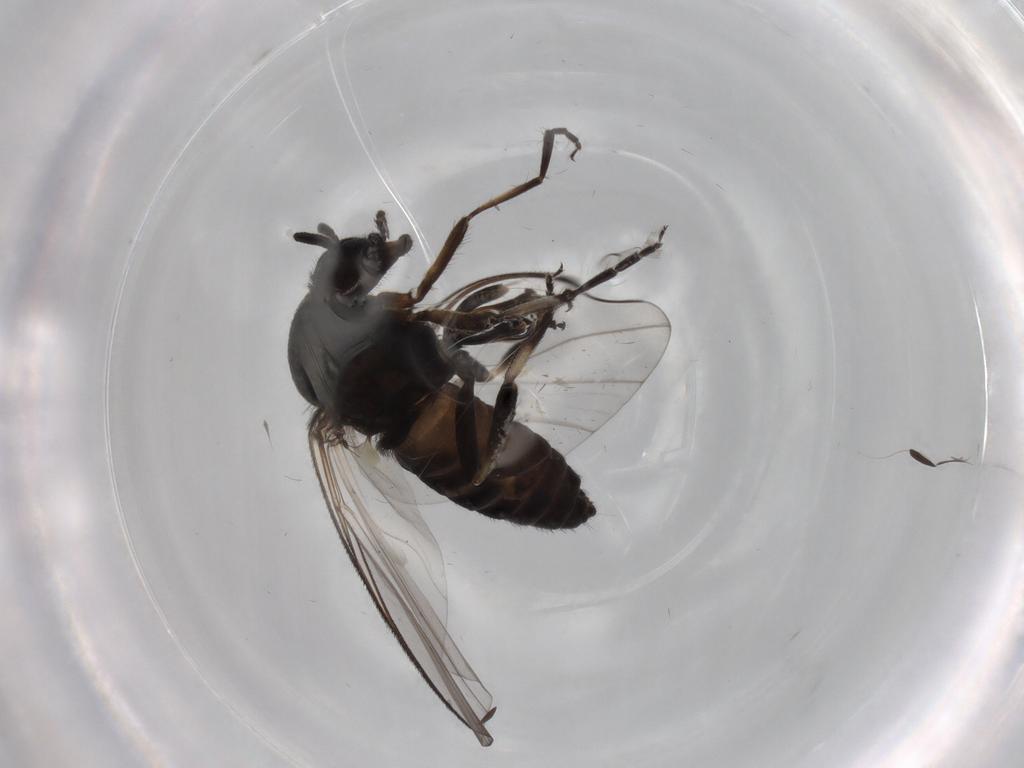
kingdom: Animalia
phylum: Arthropoda
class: Insecta
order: Diptera
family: Simuliidae
